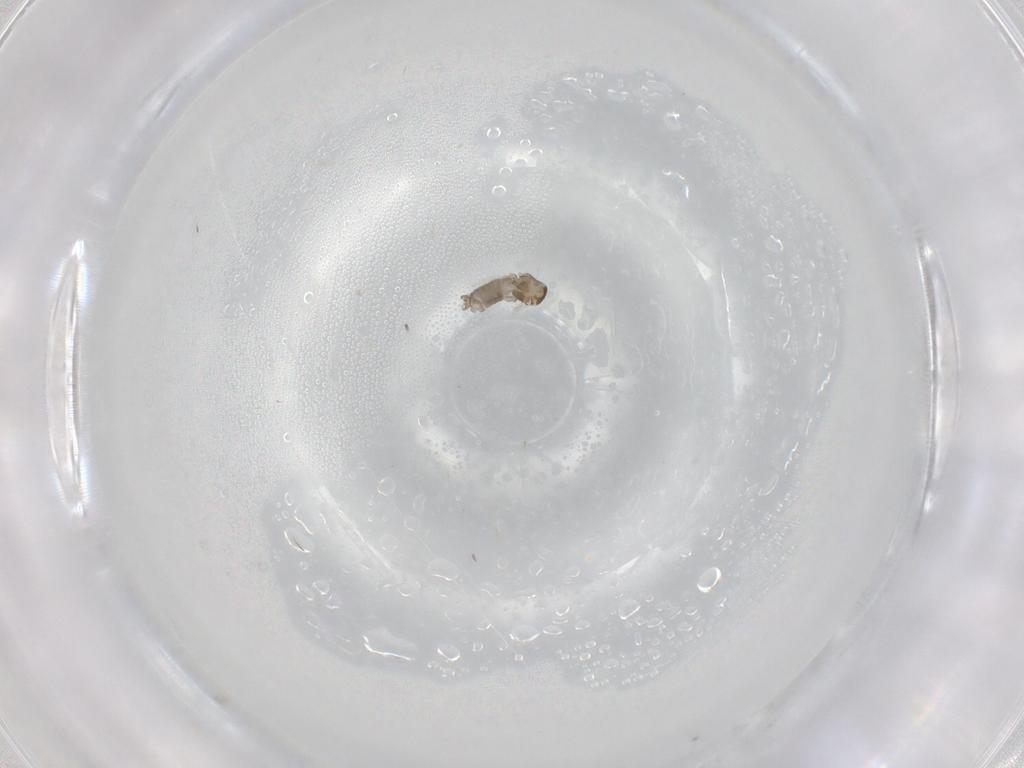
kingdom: Animalia
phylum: Arthropoda
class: Insecta
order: Diptera
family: Cecidomyiidae
